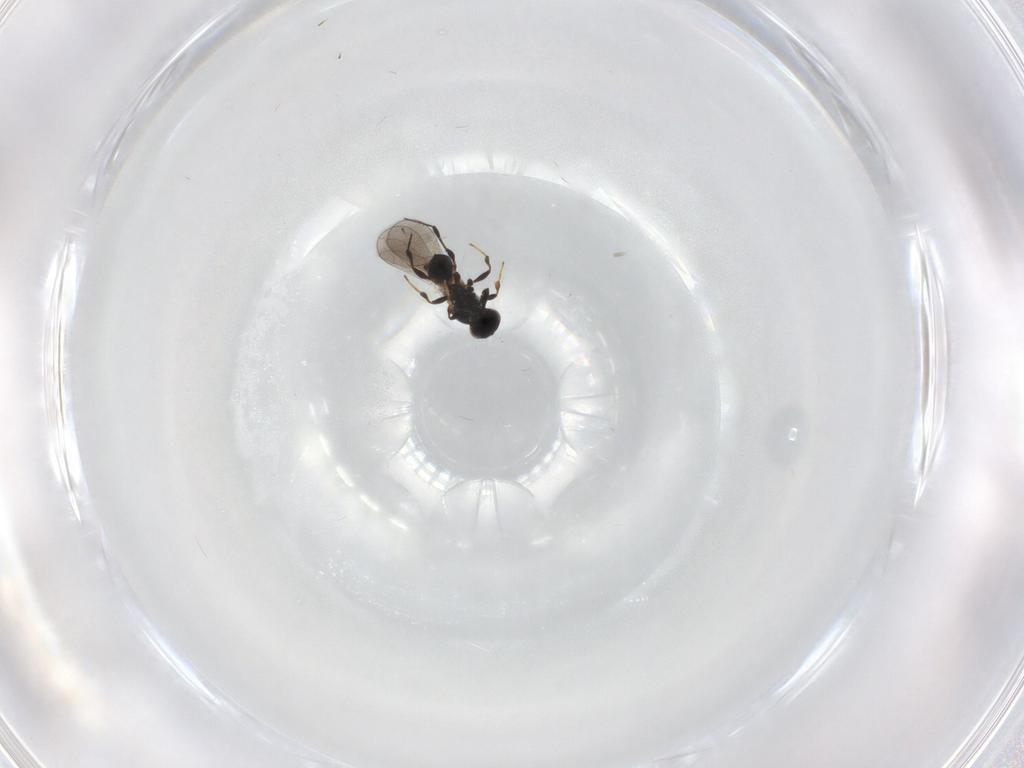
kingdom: Animalia
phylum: Arthropoda
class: Insecta
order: Hymenoptera
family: Platygastridae
